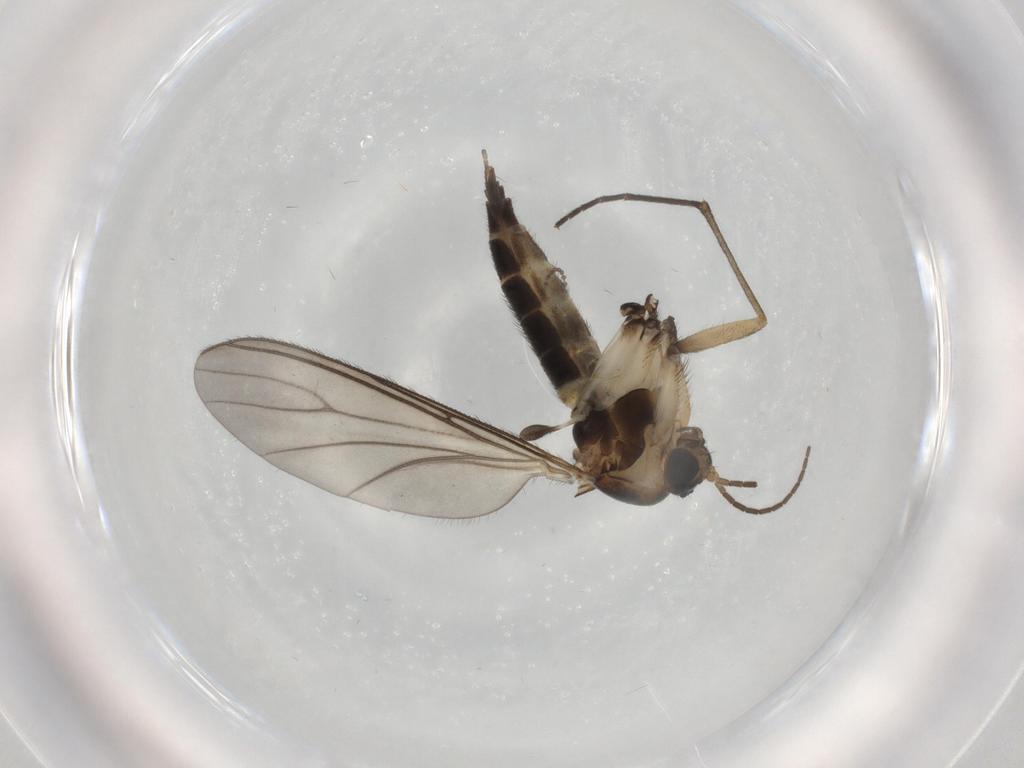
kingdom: Animalia
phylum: Arthropoda
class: Insecta
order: Diptera
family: Sciaridae
